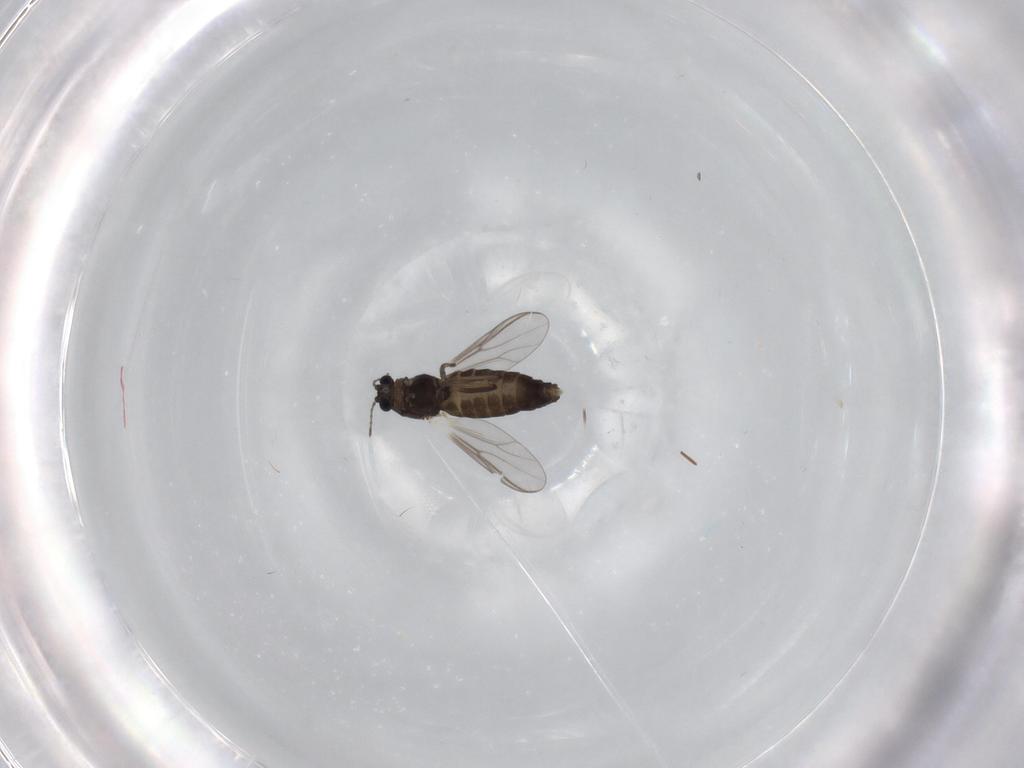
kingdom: Animalia
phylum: Arthropoda
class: Insecta
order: Diptera
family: Chironomidae
